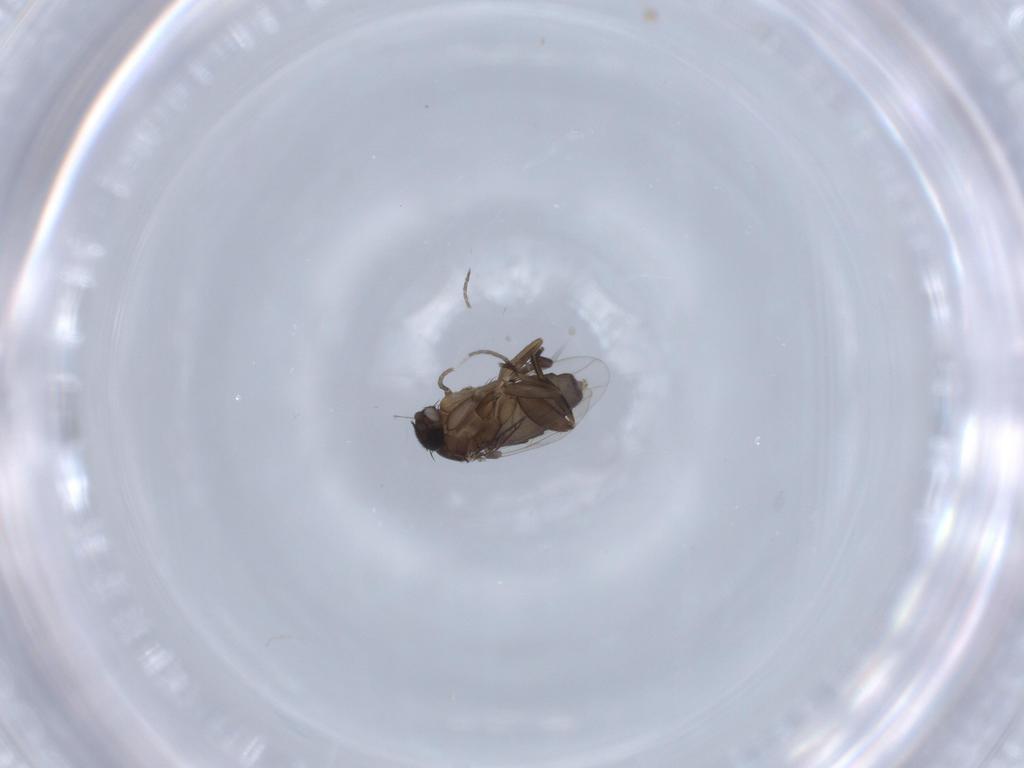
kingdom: Animalia
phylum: Arthropoda
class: Insecta
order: Diptera
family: Phoridae
